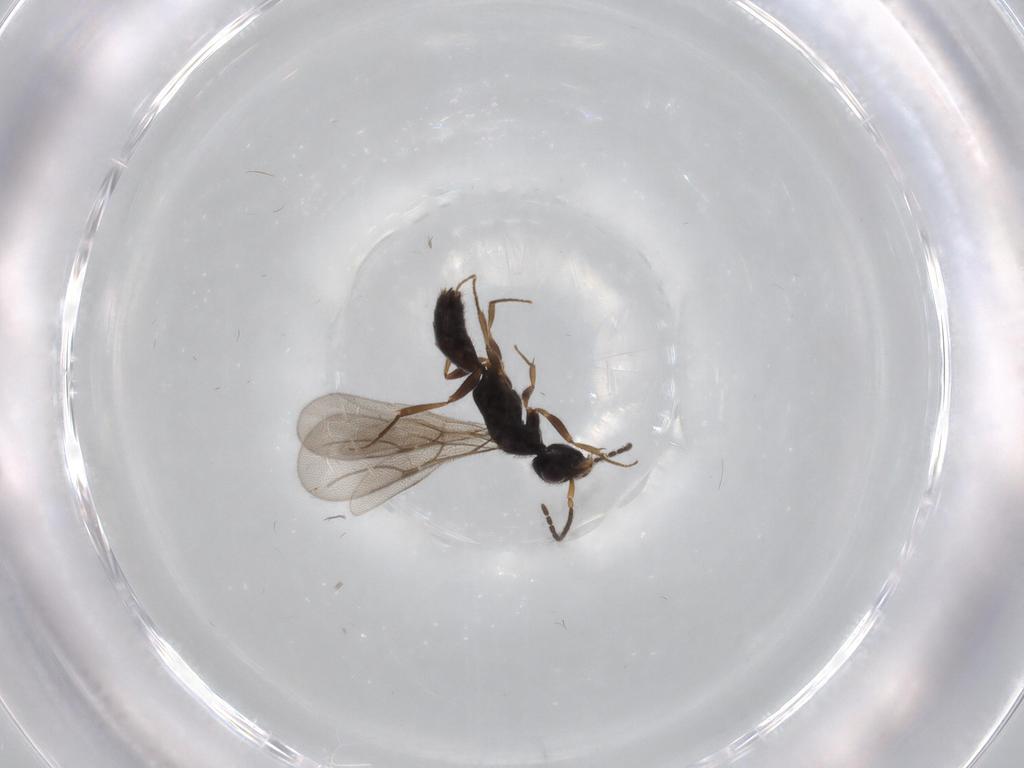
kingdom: Animalia
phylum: Arthropoda
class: Insecta
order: Hymenoptera
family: Bethylidae
